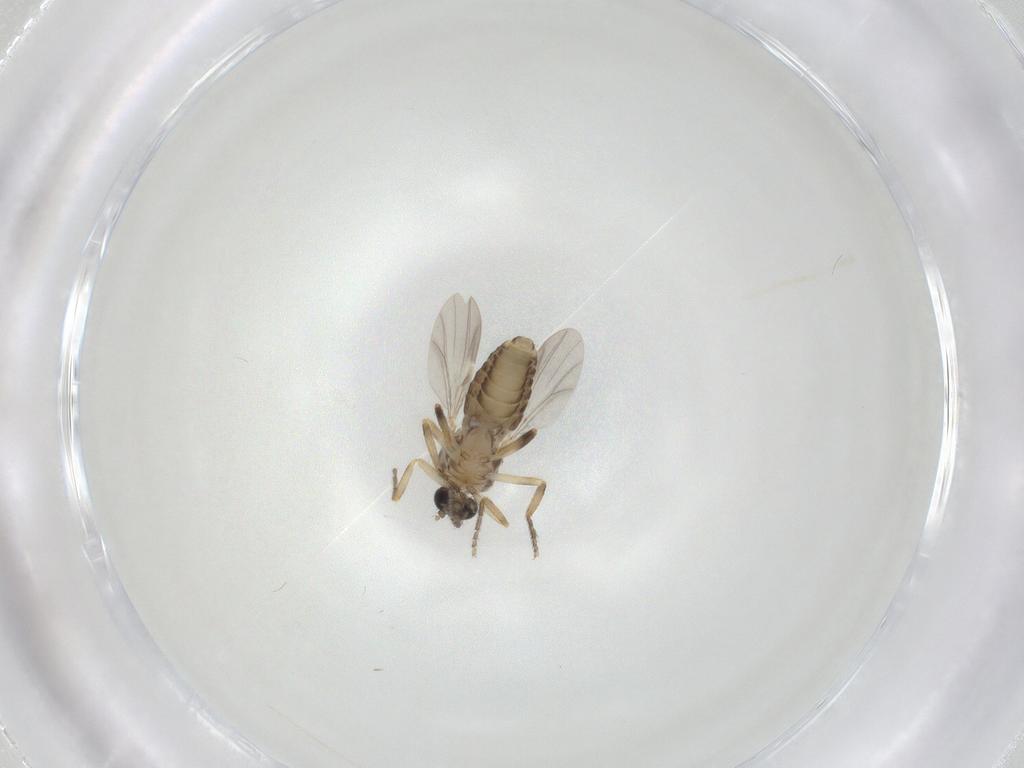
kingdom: Animalia
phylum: Arthropoda
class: Insecta
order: Diptera
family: Ceratopogonidae
